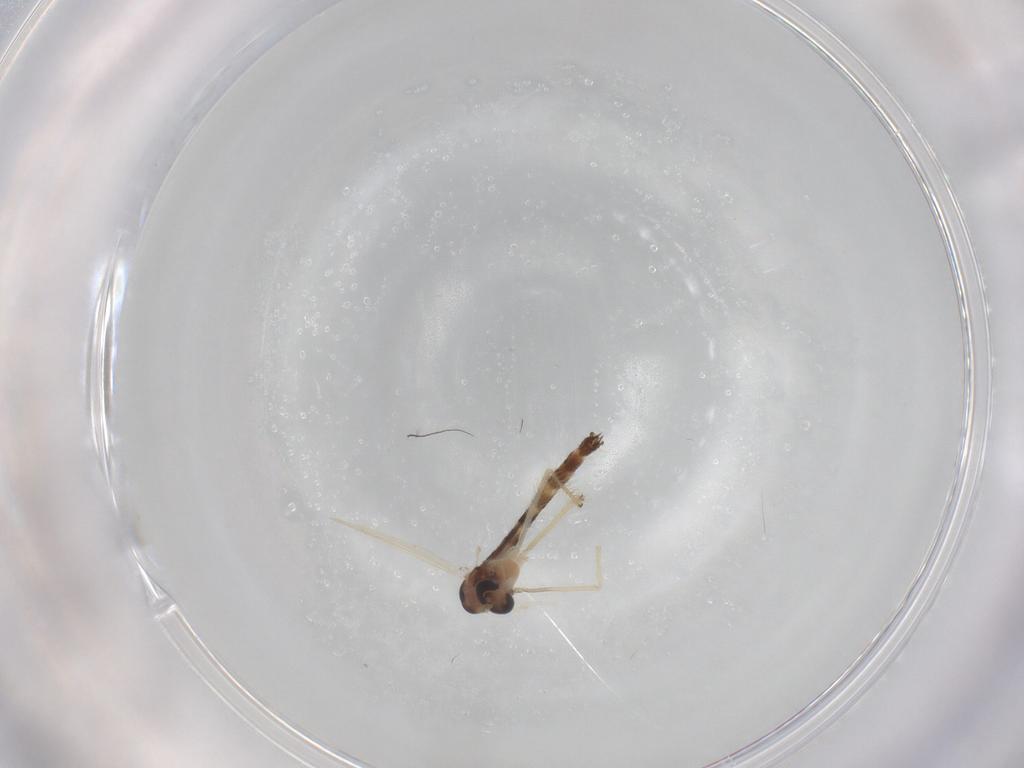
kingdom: Animalia
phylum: Arthropoda
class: Insecta
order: Diptera
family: Chironomidae
